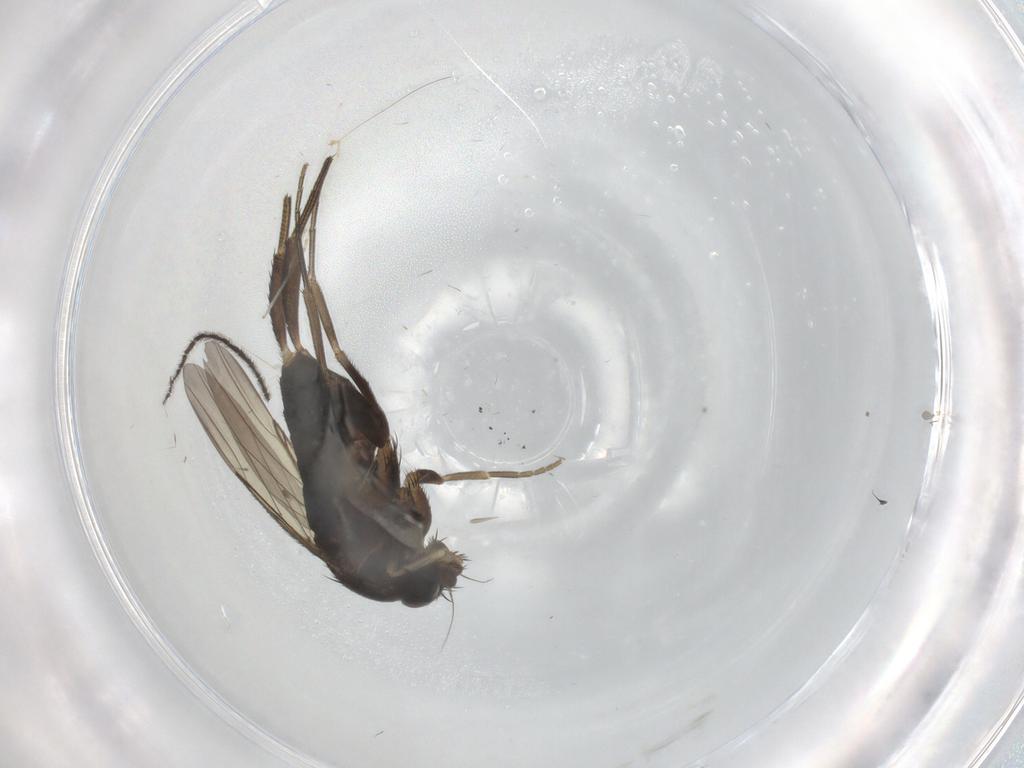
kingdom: Animalia
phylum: Arthropoda
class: Insecta
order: Diptera
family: Cecidomyiidae
